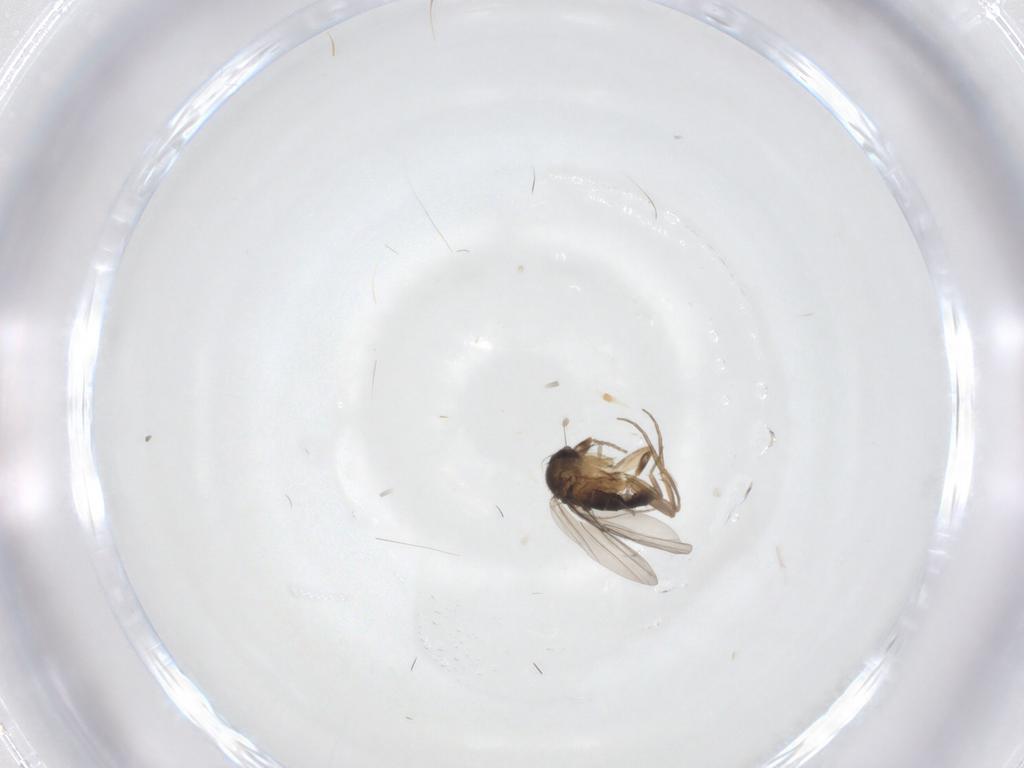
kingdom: Animalia
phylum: Arthropoda
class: Insecta
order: Diptera
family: Phoridae
